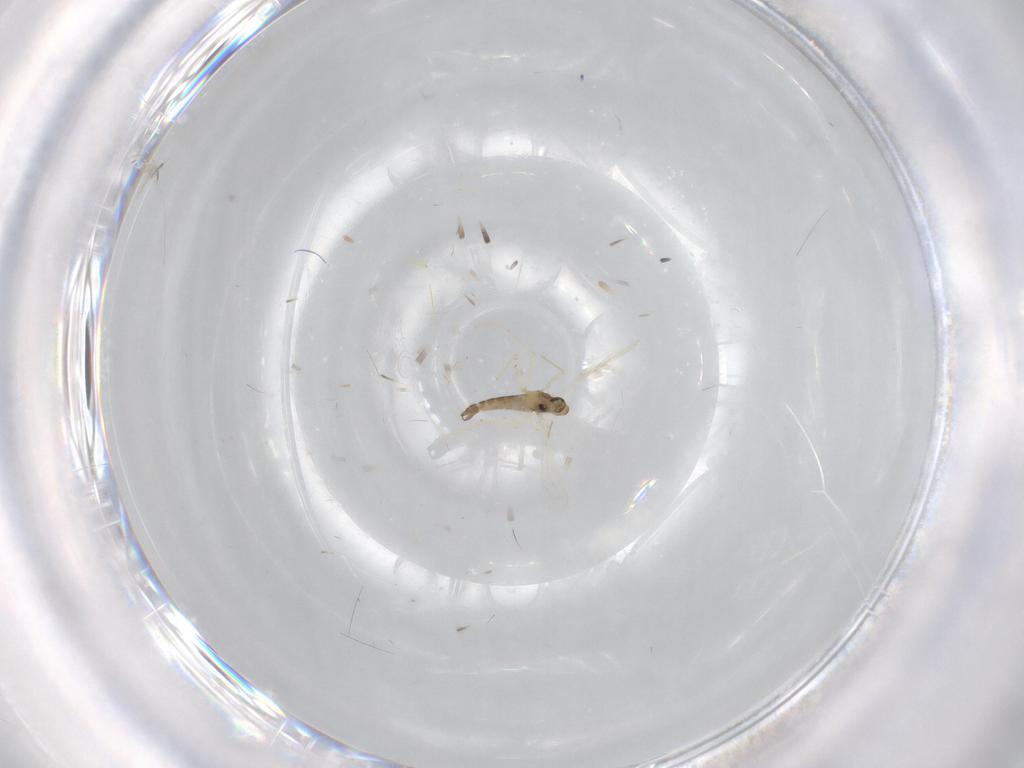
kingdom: Animalia
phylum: Arthropoda
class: Insecta
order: Diptera
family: Chironomidae
